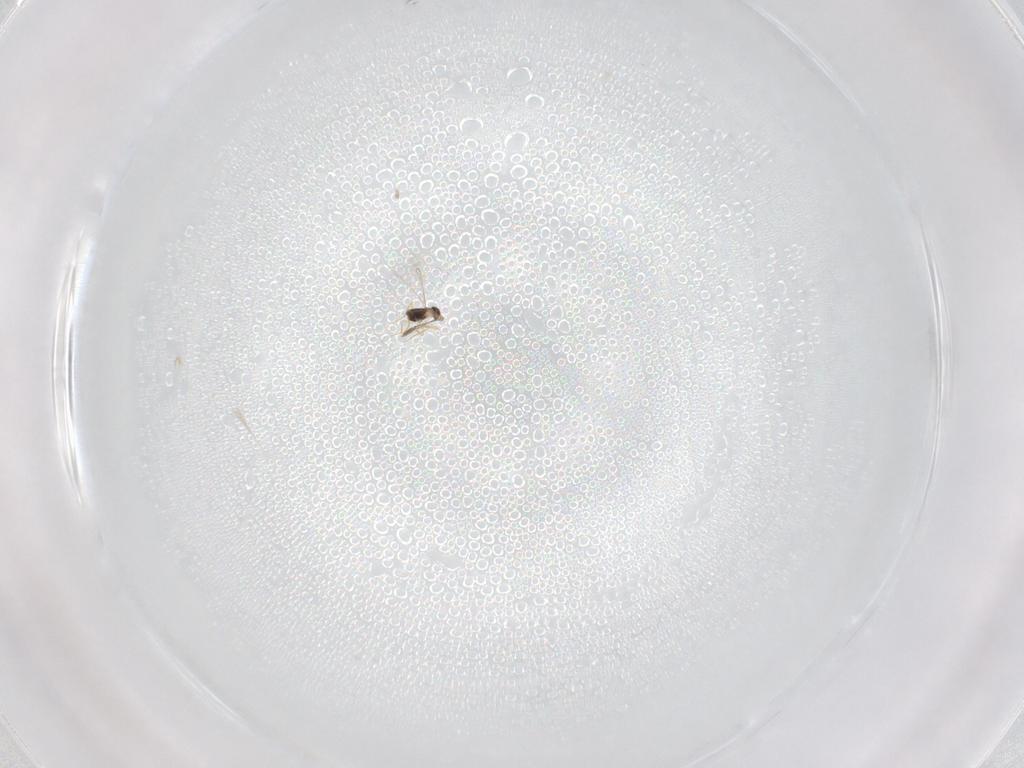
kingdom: Animalia
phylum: Arthropoda
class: Insecta
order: Hymenoptera
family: Mymaridae
